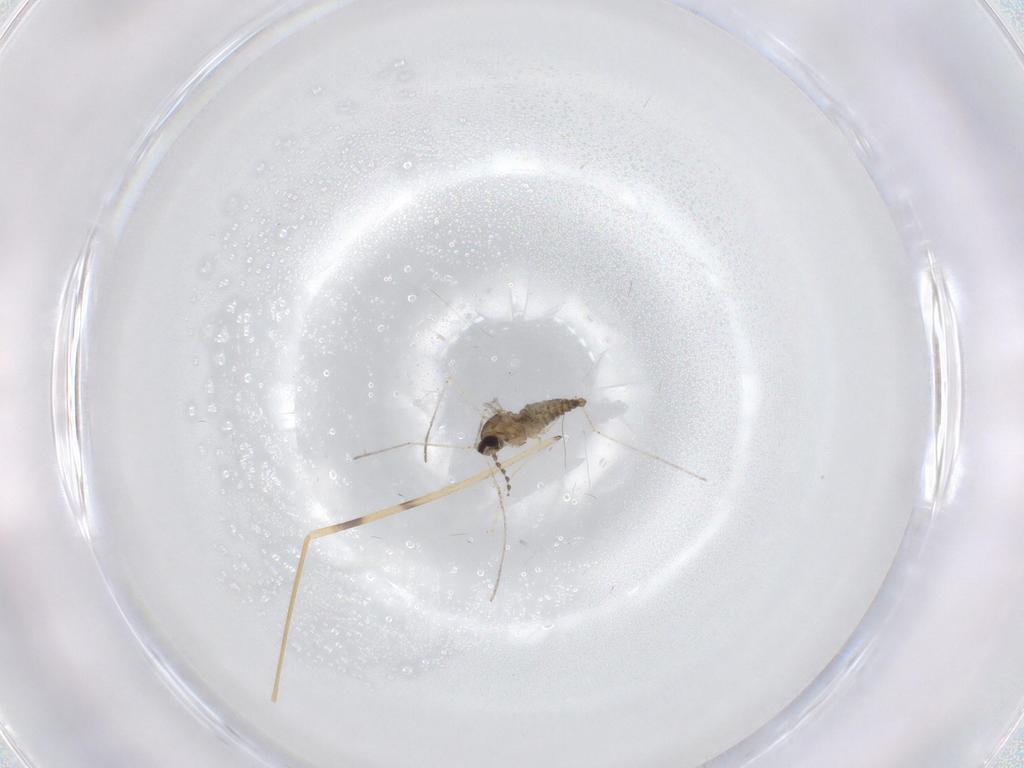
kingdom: Animalia
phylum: Arthropoda
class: Insecta
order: Diptera
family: Limoniidae
